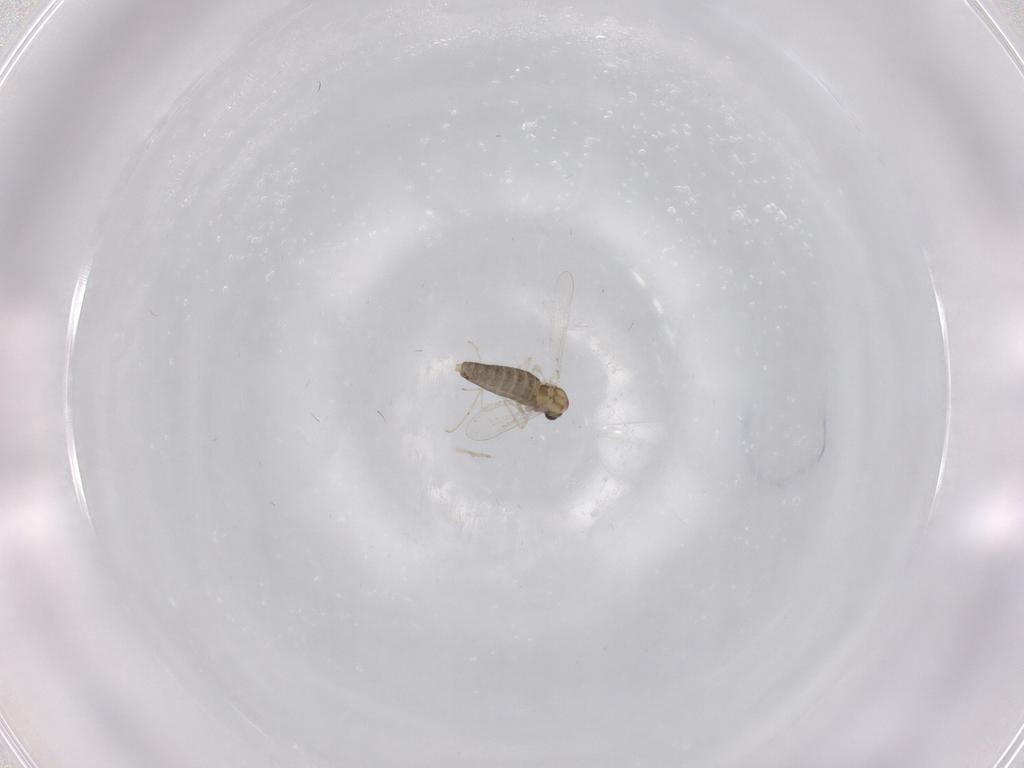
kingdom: Animalia
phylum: Arthropoda
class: Insecta
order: Diptera
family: Chironomidae
